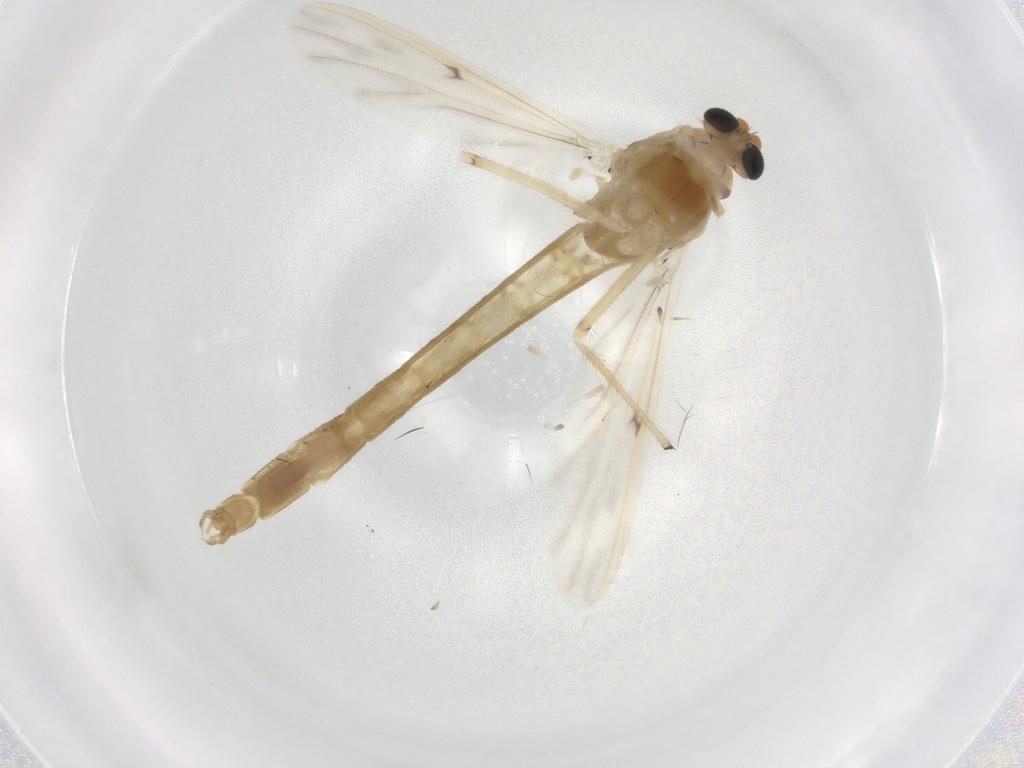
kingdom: Animalia
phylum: Arthropoda
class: Insecta
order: Diptera
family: Chironomidae
